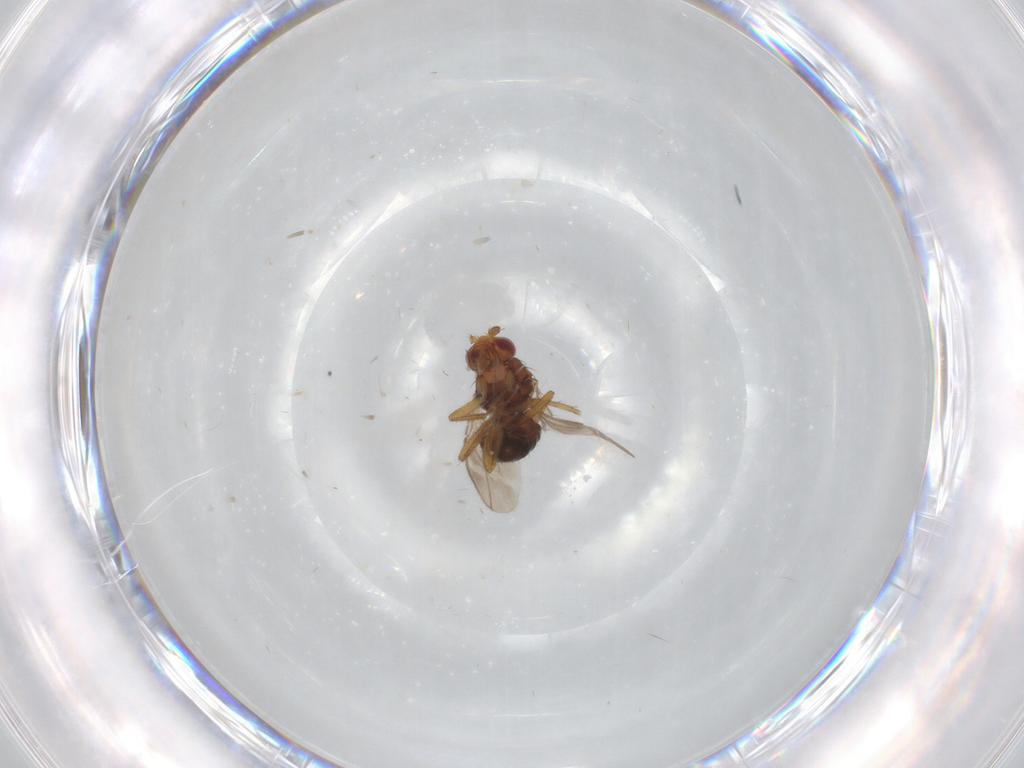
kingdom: Animalia
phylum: Arthropoda
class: Insecta
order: Diptera
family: Sphaeroceridae
